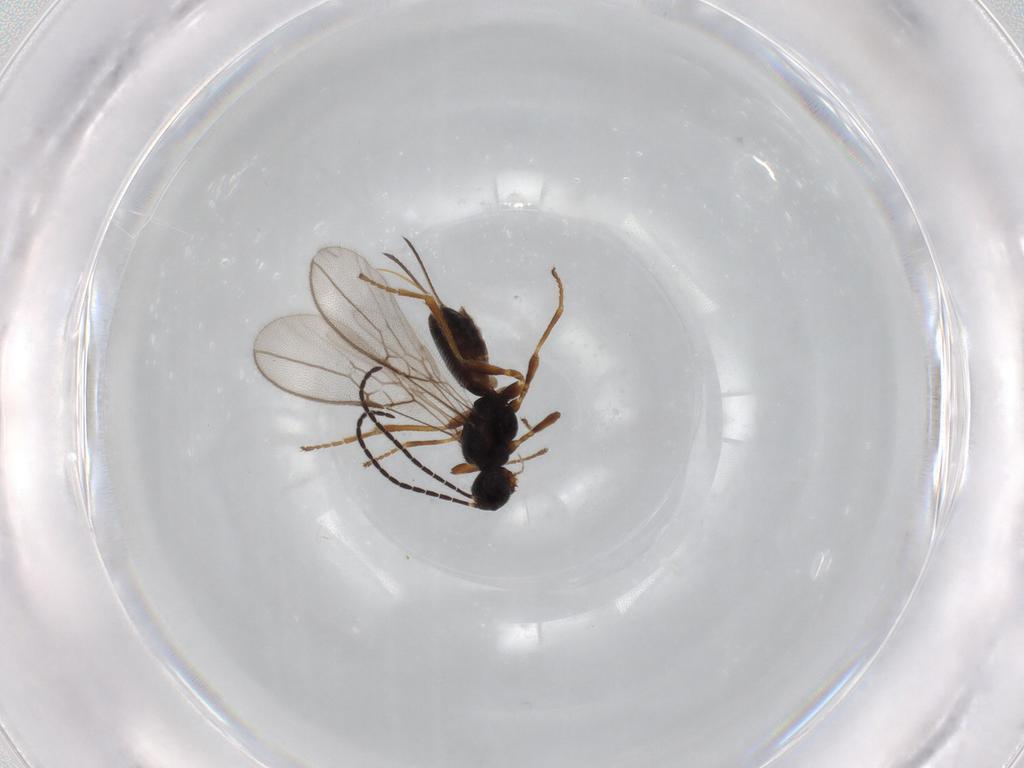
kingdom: Animalia
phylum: Arthropoda
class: Insecta
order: Hymenoptera
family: Braconidae
